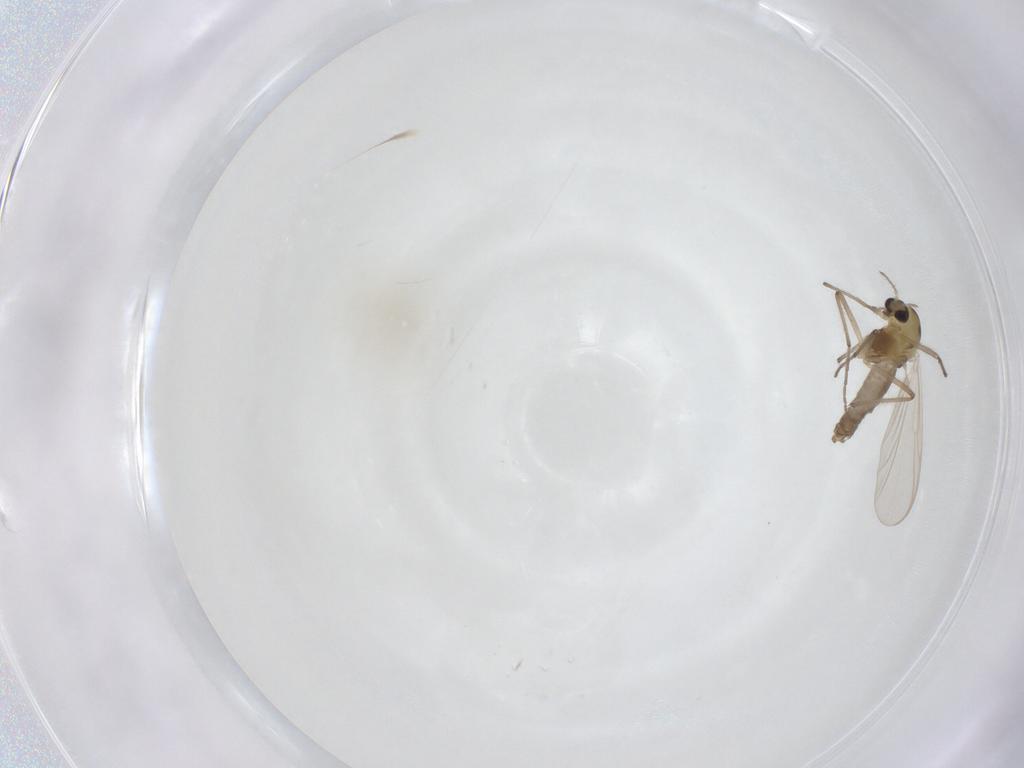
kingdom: Animalia
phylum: Arthropoda
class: Insecta
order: Diptera
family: Chironomidae
